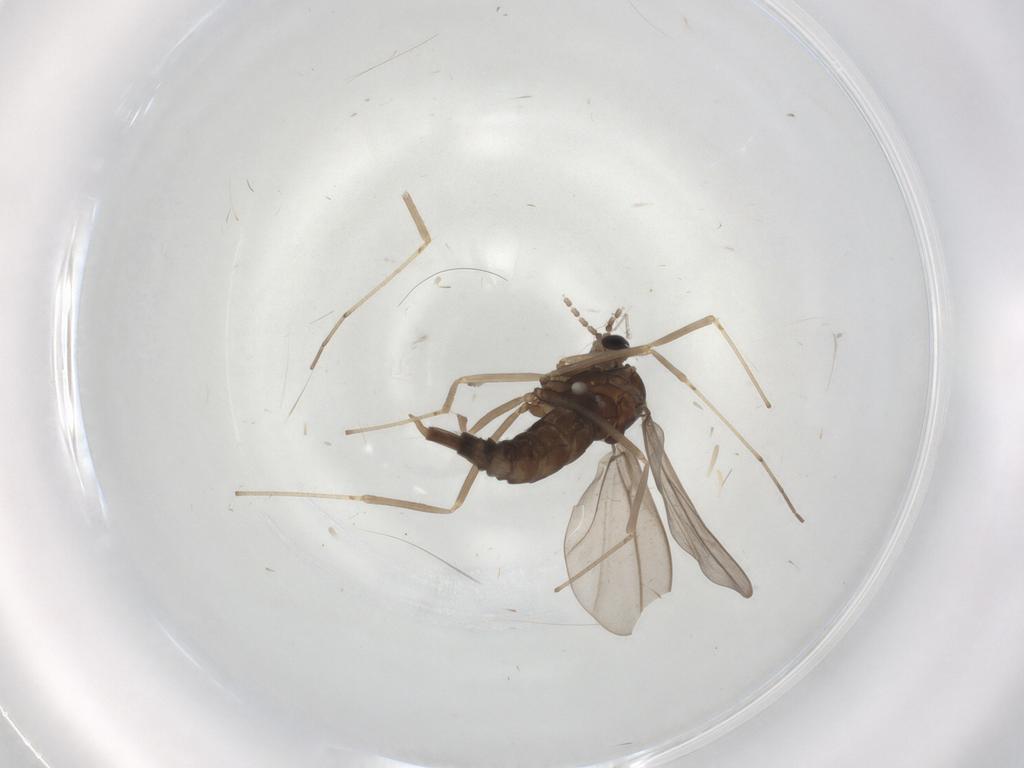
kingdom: Animalia
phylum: Arthropoda
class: Insecta
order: Diptera
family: Cecidomyiidae
